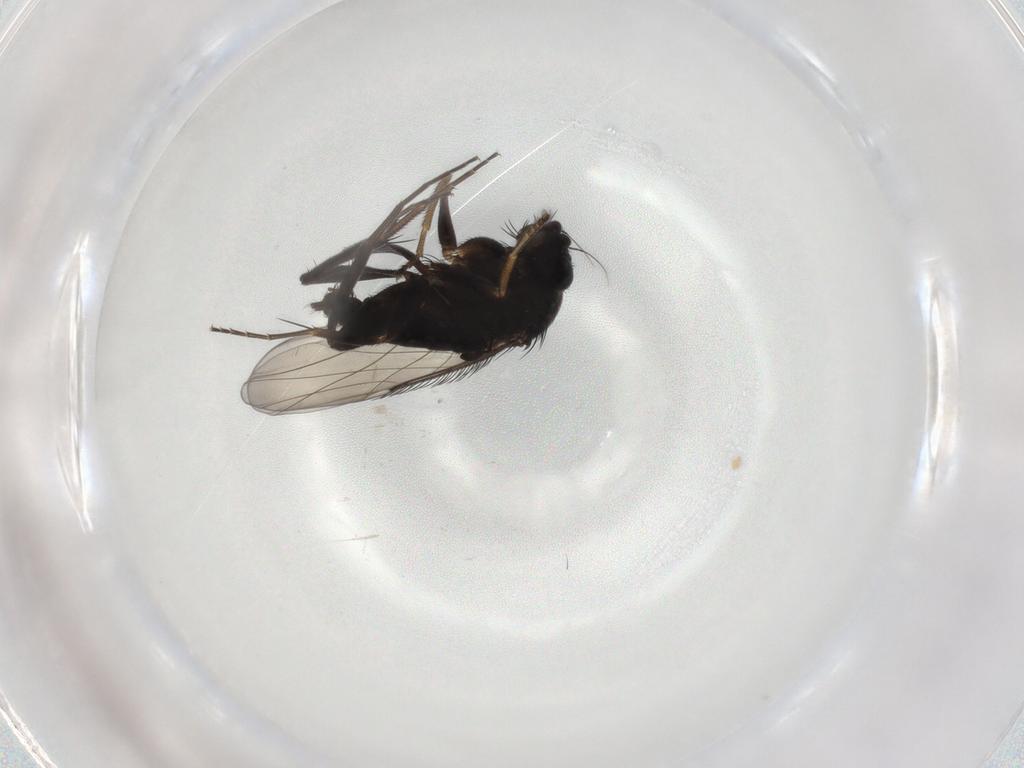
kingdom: Animalia
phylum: Arthropoda
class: Insecta
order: Diptera
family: Phoridae
